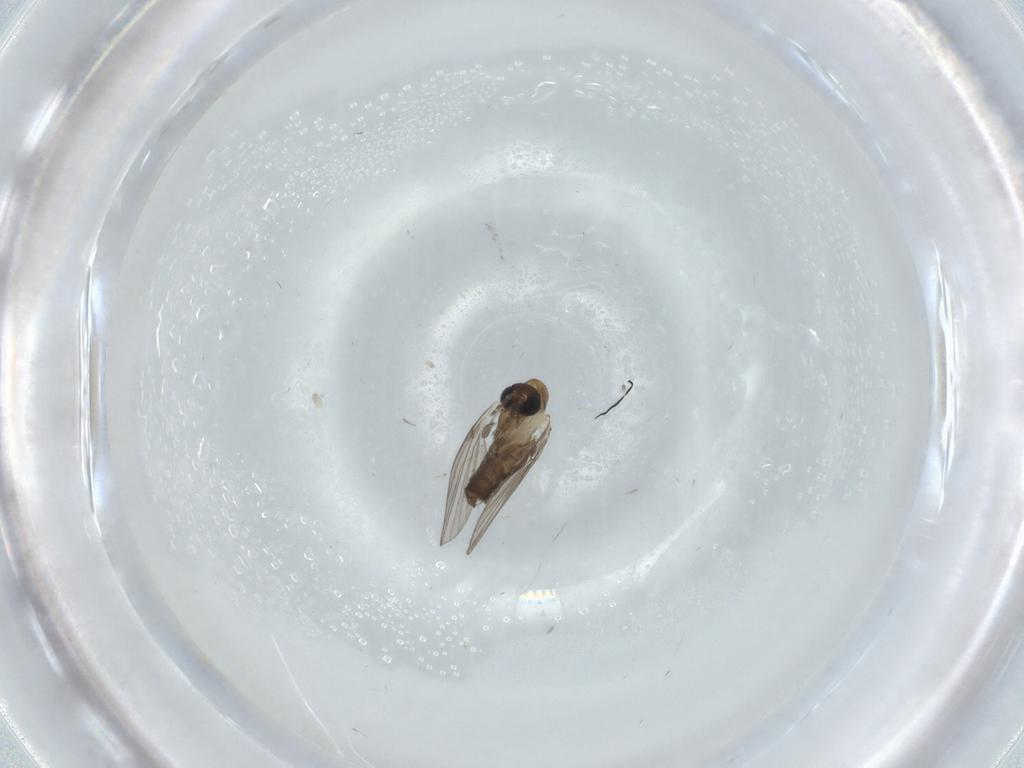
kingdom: Animalia
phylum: Arthropoda
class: Insecta
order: Diptera
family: Psychodidae
